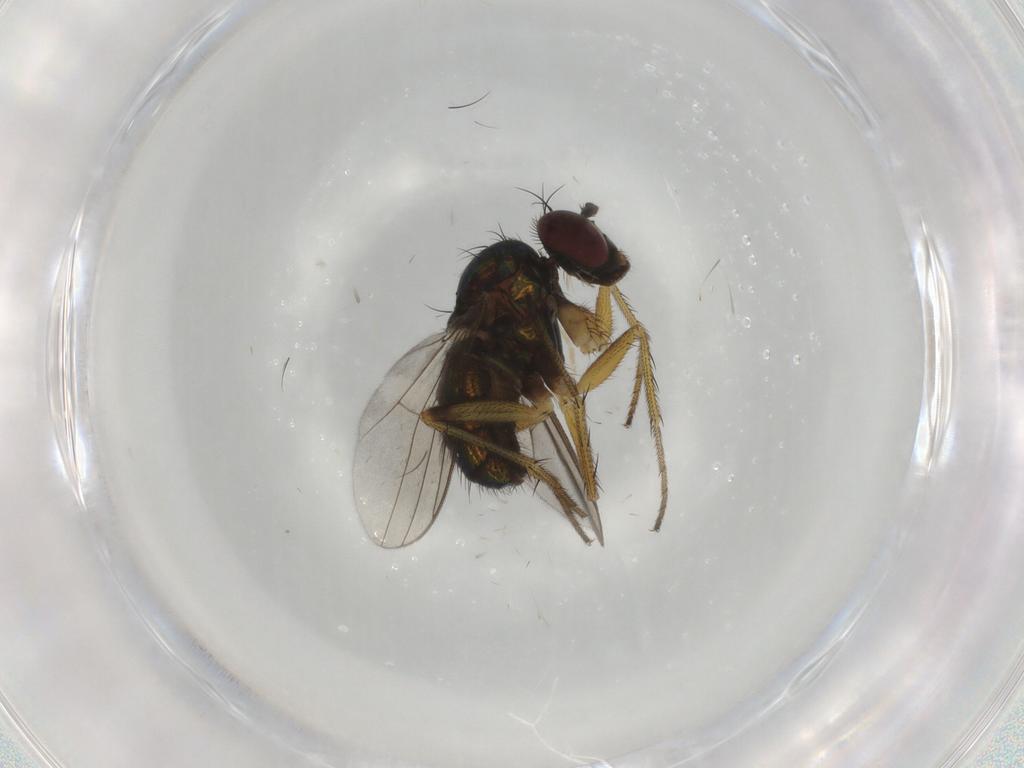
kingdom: Animalia
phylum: Arthropoda
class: Insecta
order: Diptera
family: Dolichopodidae
